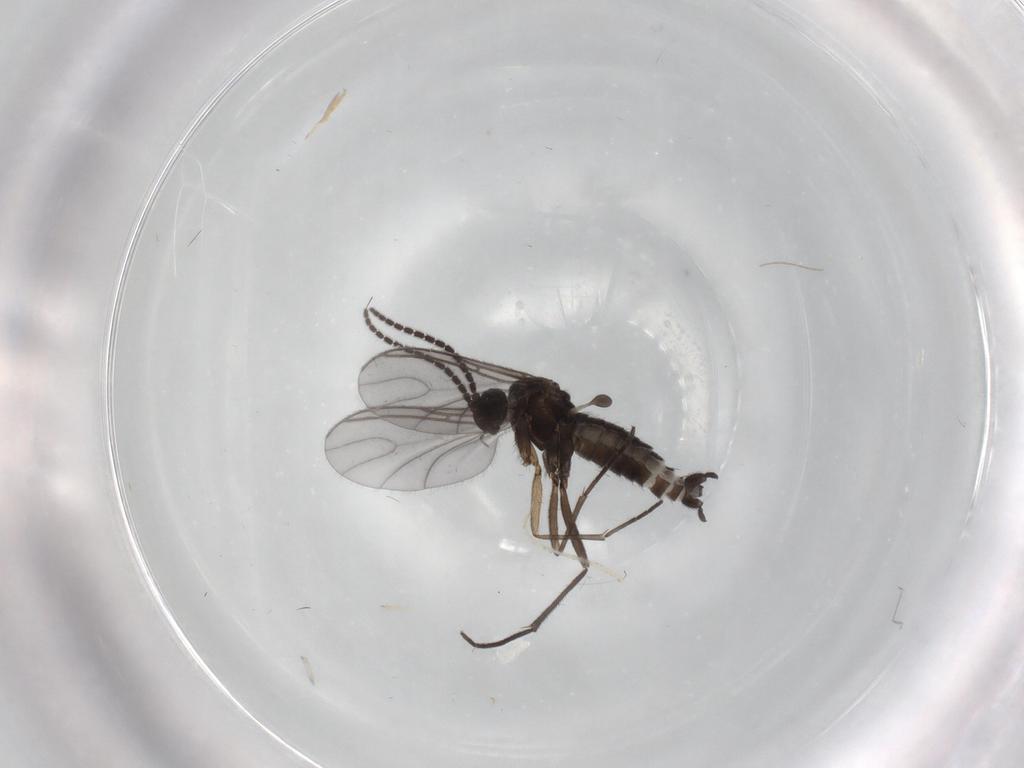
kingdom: Animalia
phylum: Arthropoda
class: Insecta
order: Diptera
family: Sciaridae
